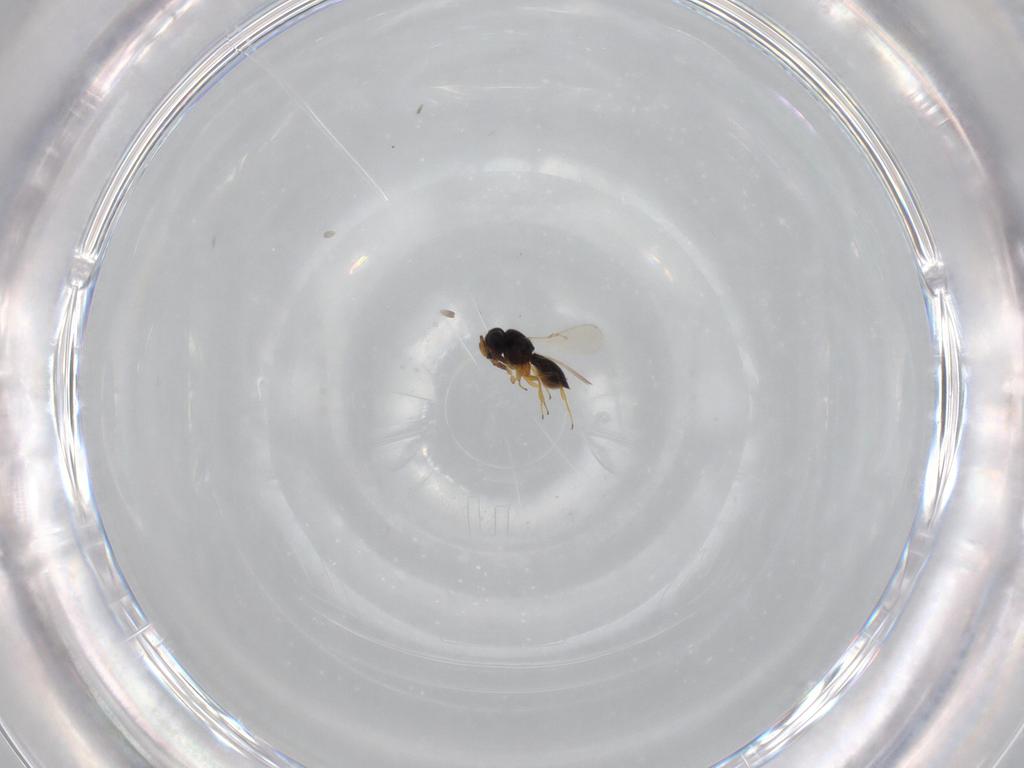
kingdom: Animalia
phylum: Arthropoda
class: Insecta
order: Hymenoptera
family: Scelionidae
